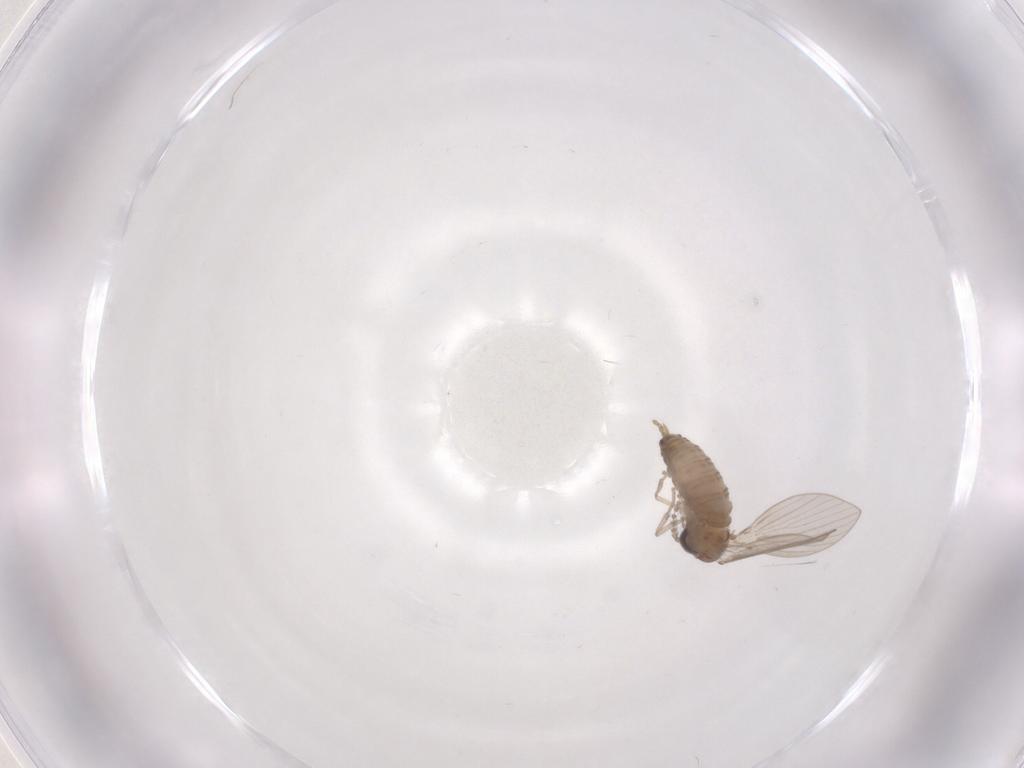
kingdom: Animalia
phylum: Arthropoda
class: Insecta
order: Diptera
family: Psychodidae
